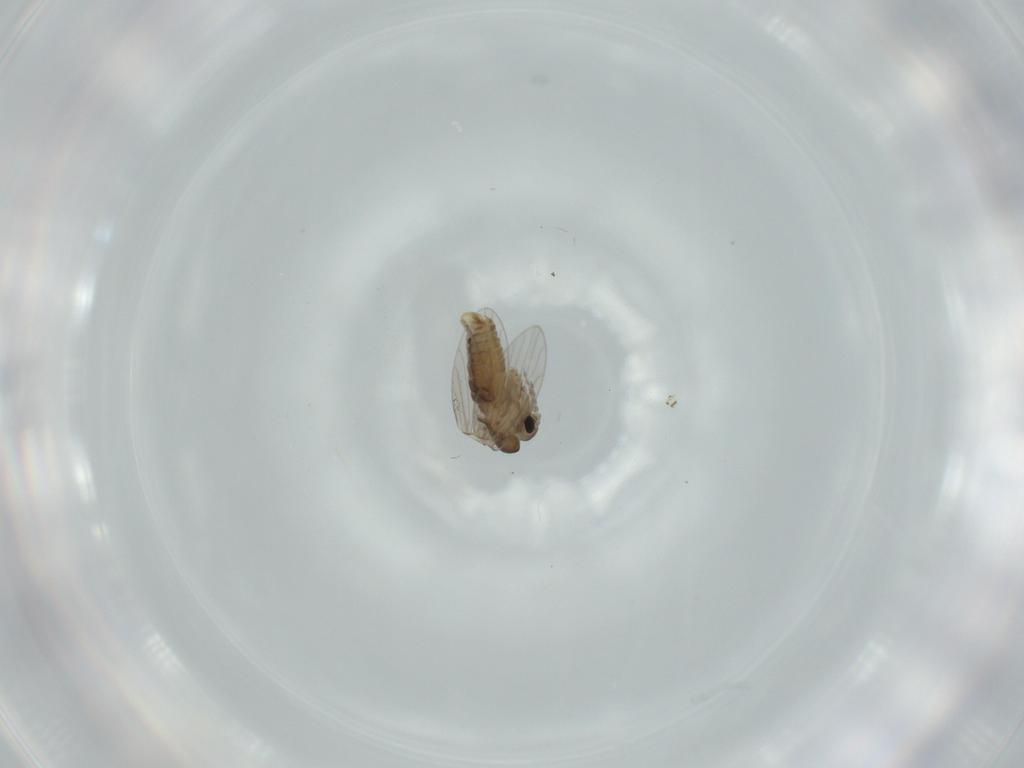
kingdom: Animalia
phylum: Arthropoda
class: Insecta
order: Diptera
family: Psychodidae
